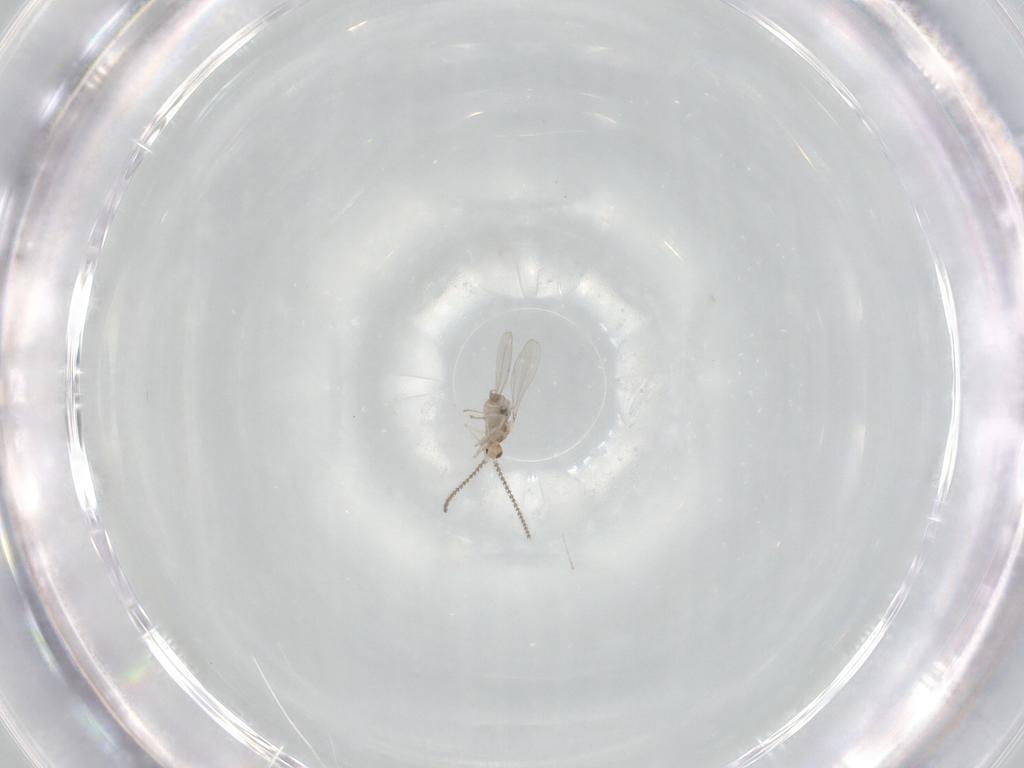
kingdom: Animalia
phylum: Arthropoda
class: Insecta
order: Diptera
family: Cecidomyiidae
